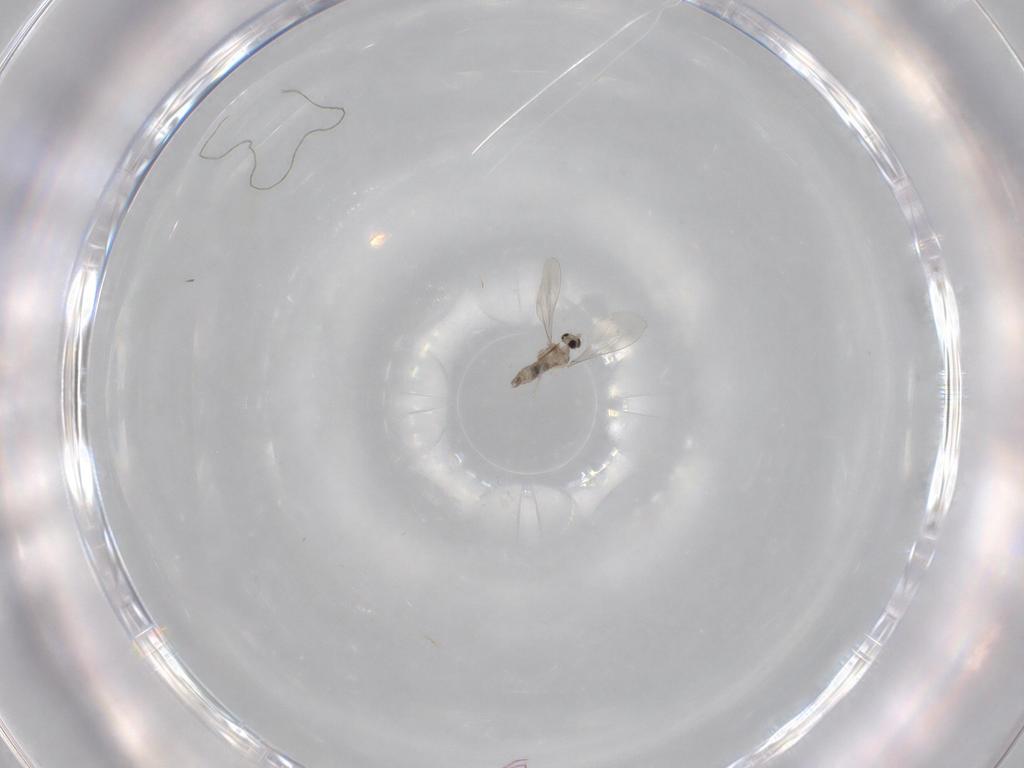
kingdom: Animalia
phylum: Arthropoda
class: Insecta
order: Diptera
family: Cecidomyiidae
